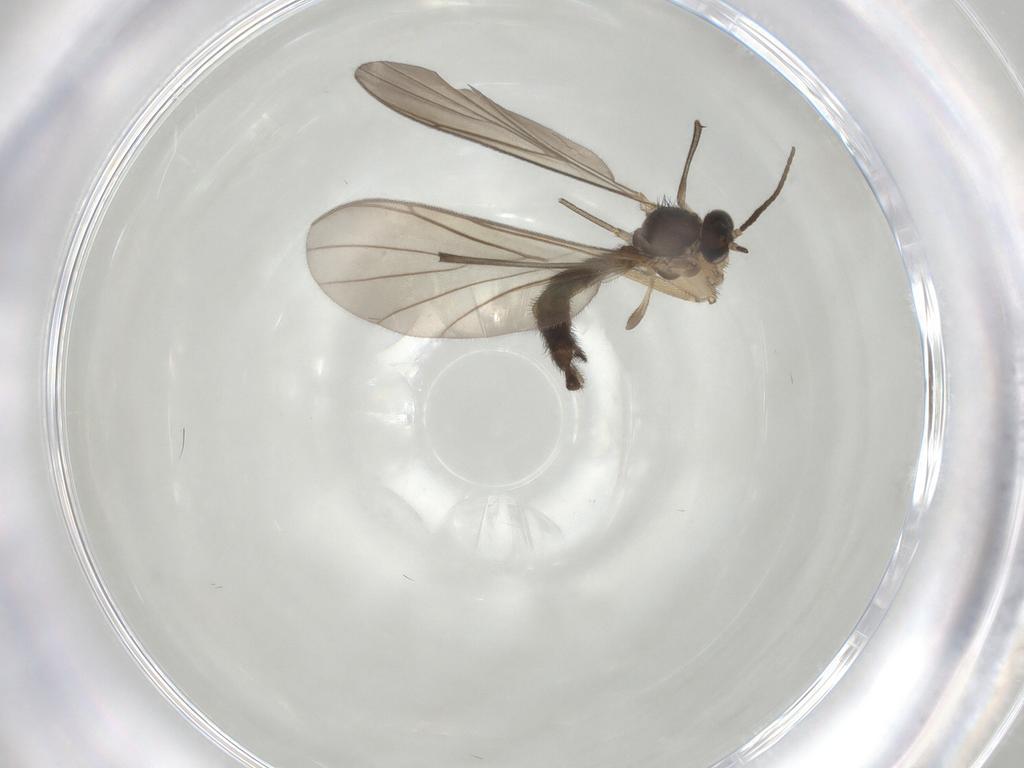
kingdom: Animalia
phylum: Arthropoda
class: Insecta
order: Diptera
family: Keroplatidae
